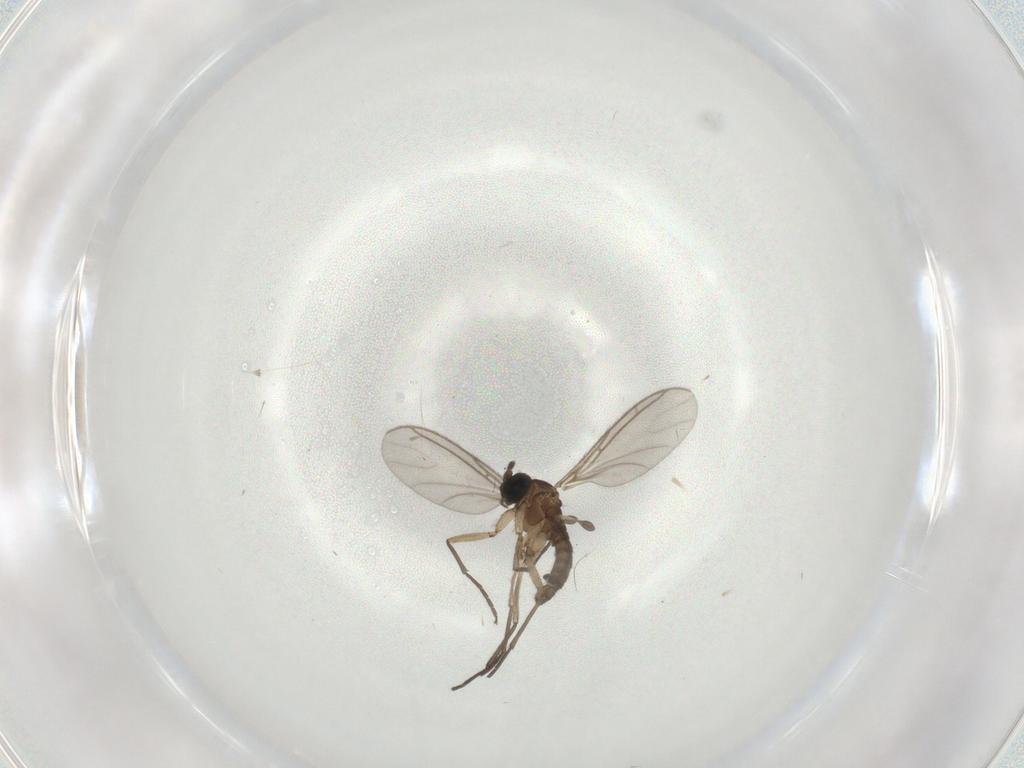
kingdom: Animalia
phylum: Arthropoda
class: Insecta
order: Diptera
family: Sciaridae
